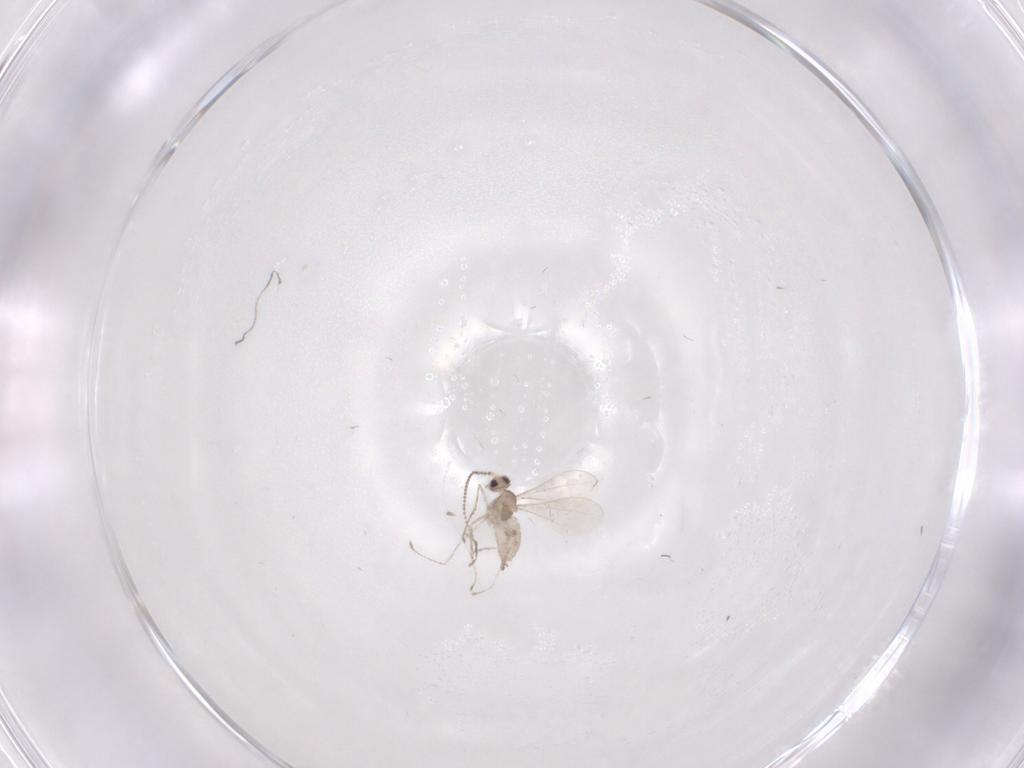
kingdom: Animalia
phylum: Arthropoda
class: Insecta
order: Diptera
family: Cecidomyiidae
